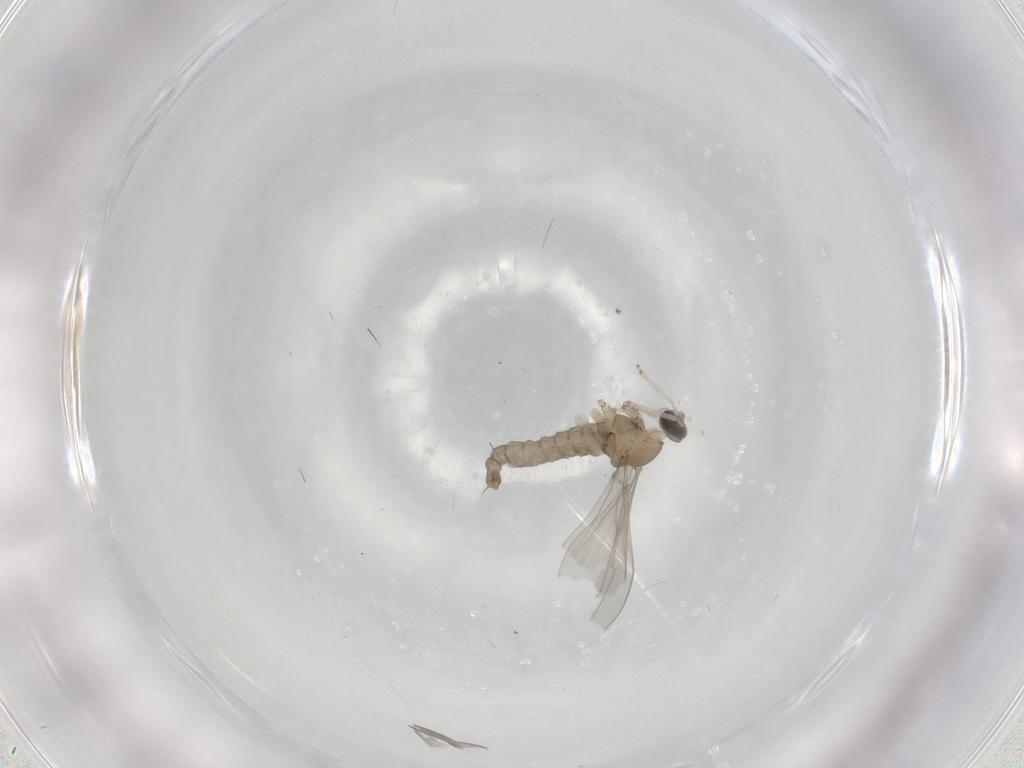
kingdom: Animalia
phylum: Arthropoda
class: Insecta
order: Diptera
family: Cecidomyiidae
